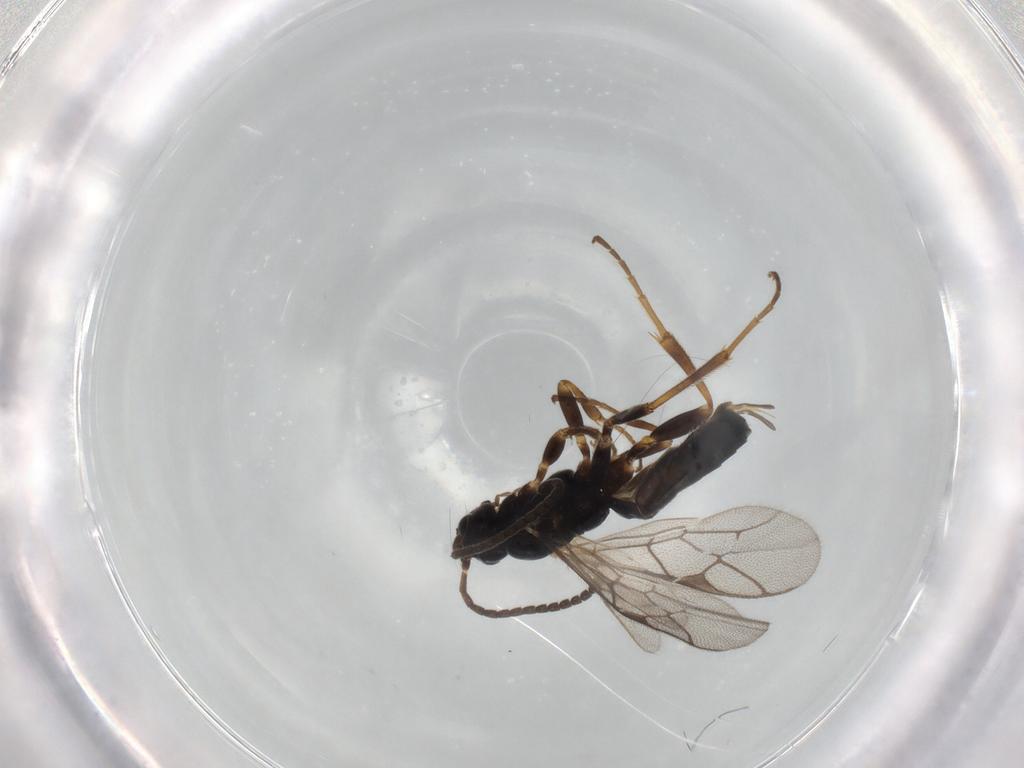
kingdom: Animalia
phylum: Arthropoda
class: Insecta
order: Hymenoptera
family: Ichneumonidae
